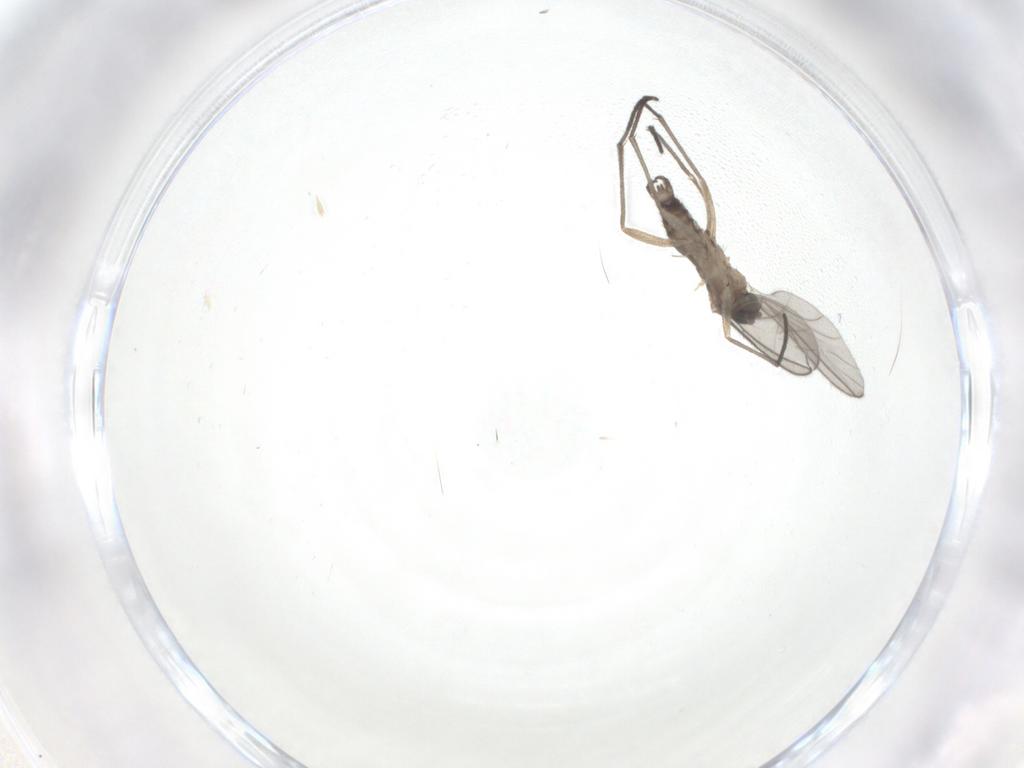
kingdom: Animalia
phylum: Arthropoda
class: Insecta
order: Diptera
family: Sciaridae
